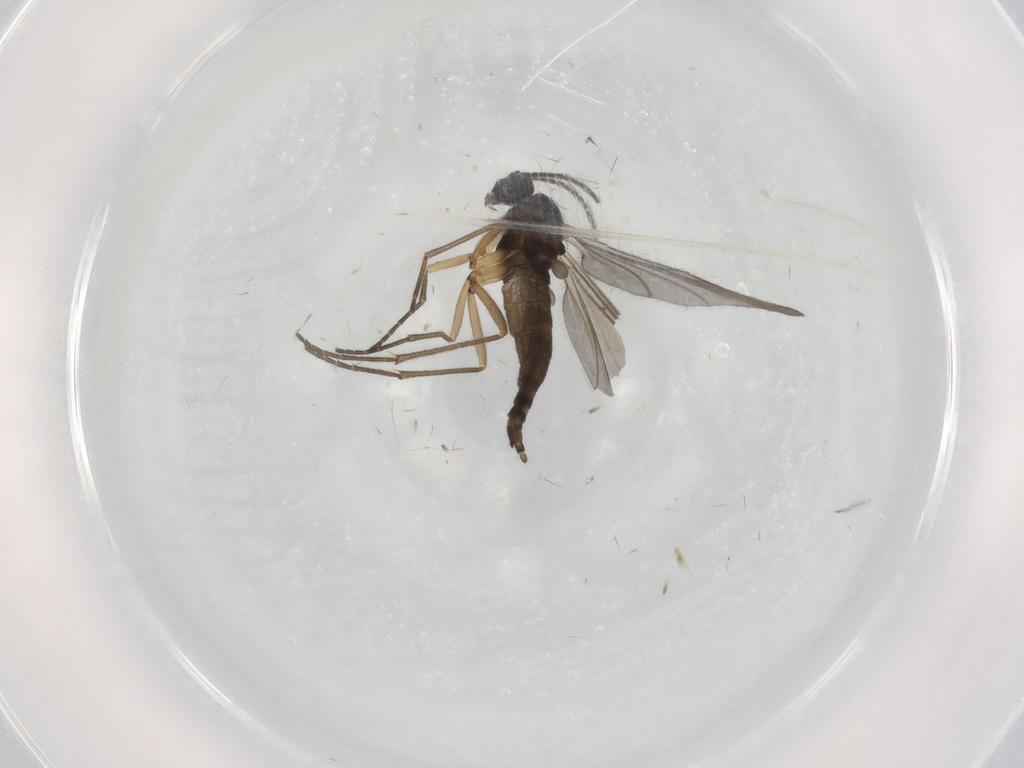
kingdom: Animalia
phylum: Arthropoda
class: Insecta
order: Diptera
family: Sciaridae
